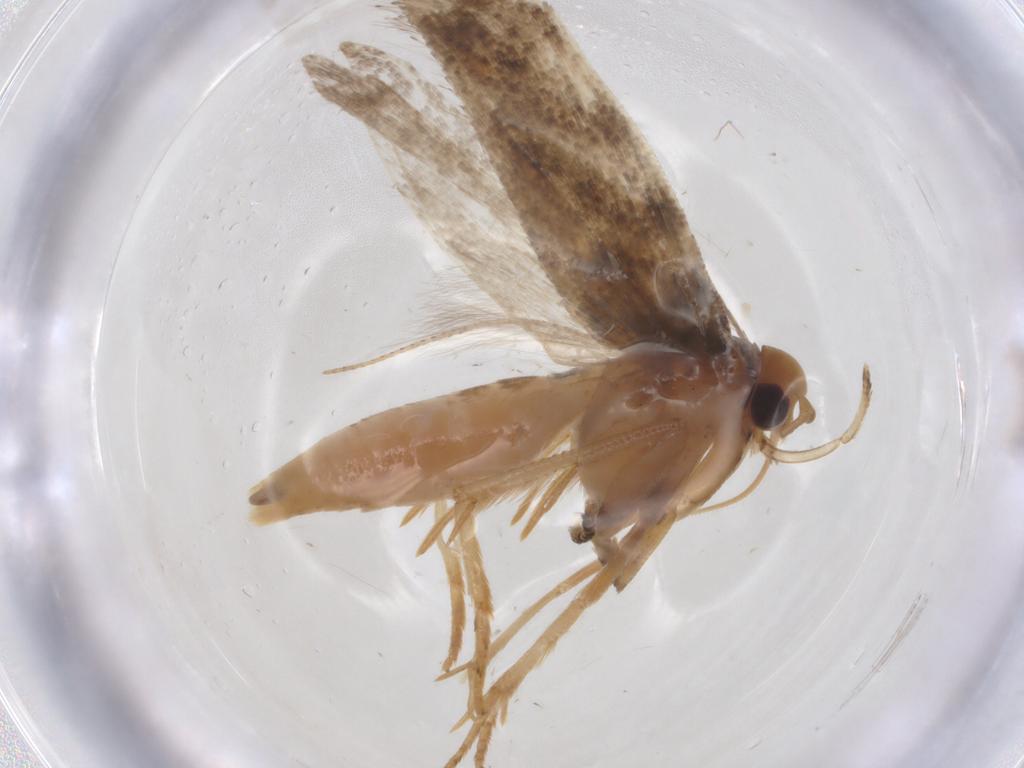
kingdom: Animalia
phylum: Arthropoda
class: Insecta
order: Lepidoptera
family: Gelechiidae
